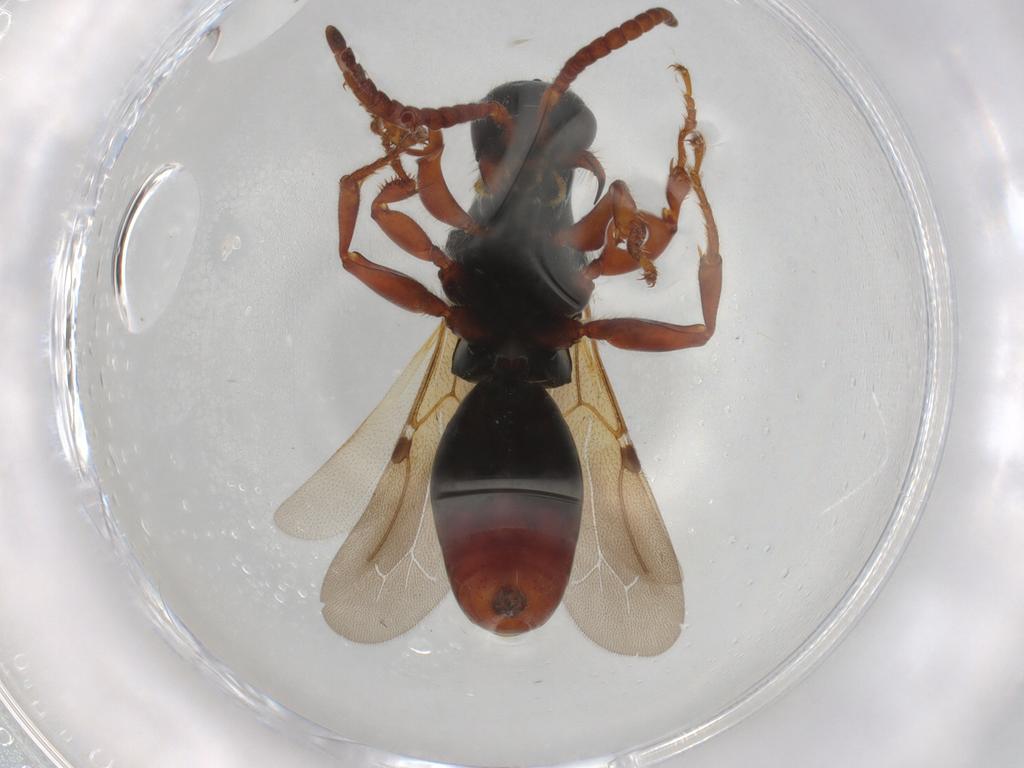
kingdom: Animalia
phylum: Arthropoda
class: Insecta
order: Hymenoptera
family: Bethylidae
